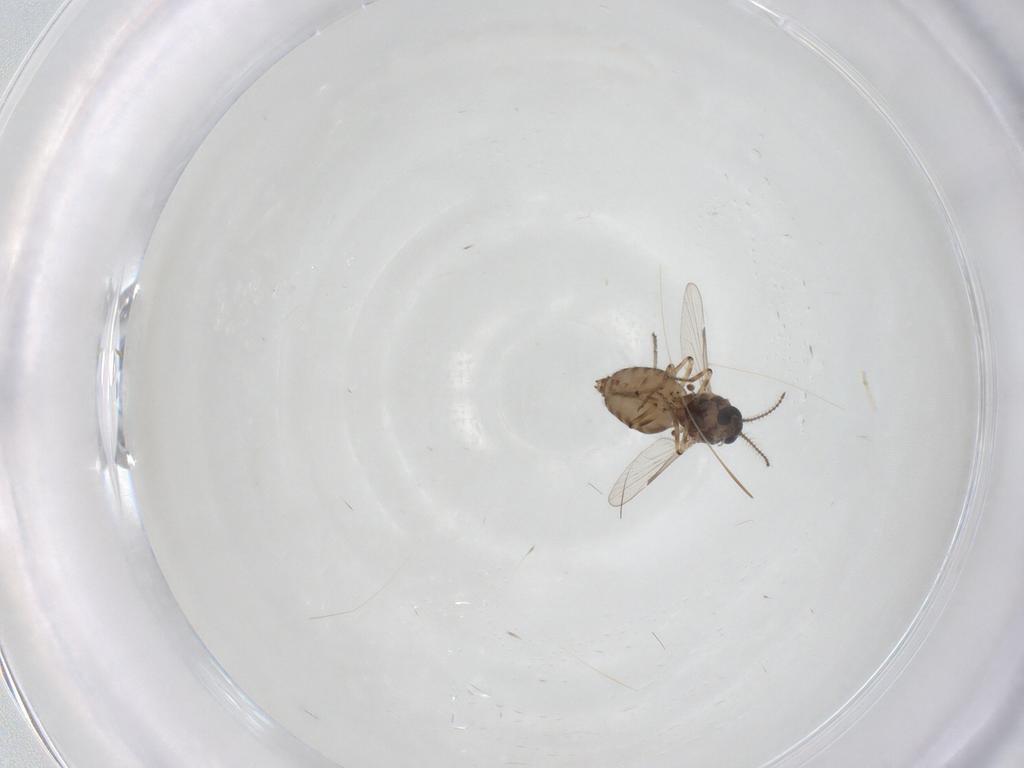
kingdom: Animalia
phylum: Arthropoda
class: Insecta
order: Diptera
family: Ceratopogonidae
